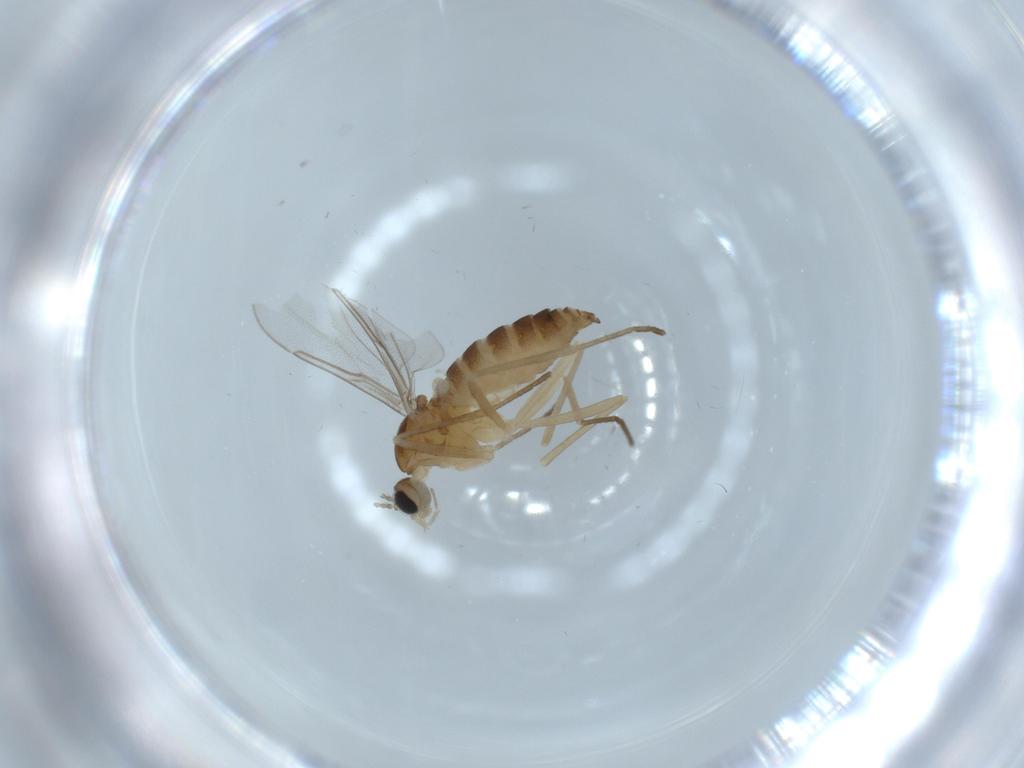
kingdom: Animalia
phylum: Arthropoda
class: Insecta
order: Diptera
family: Cecidomyiidae
